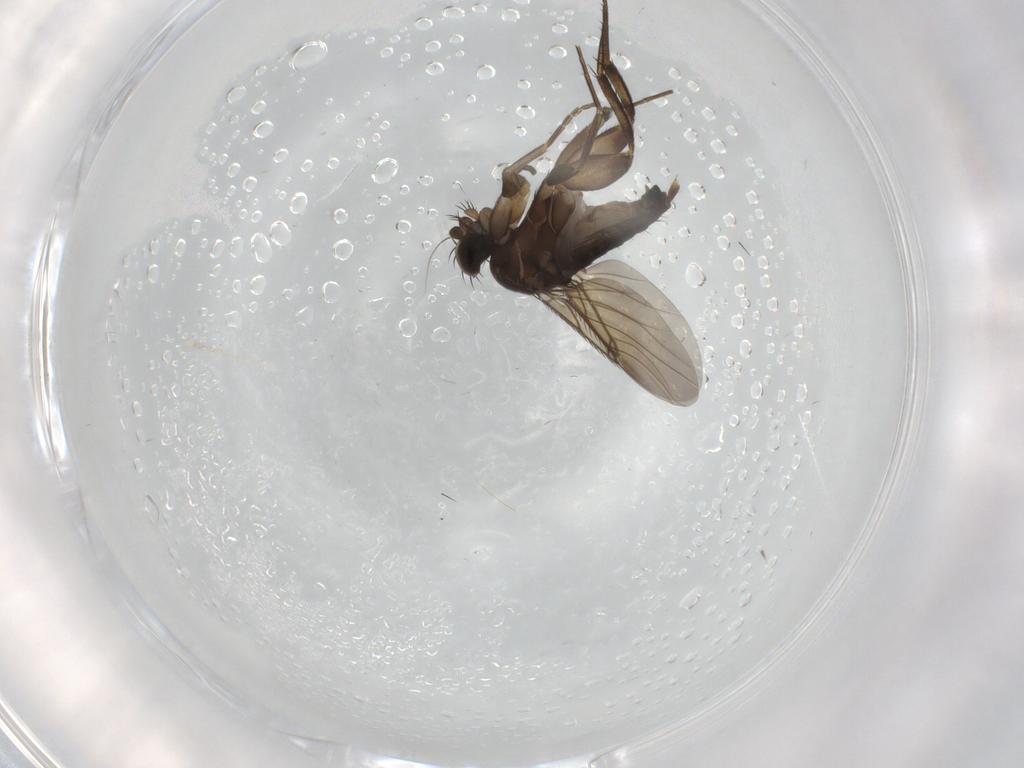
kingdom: Animalia
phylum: Arthropoda
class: Insecta
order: Diptera
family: Phoridae
